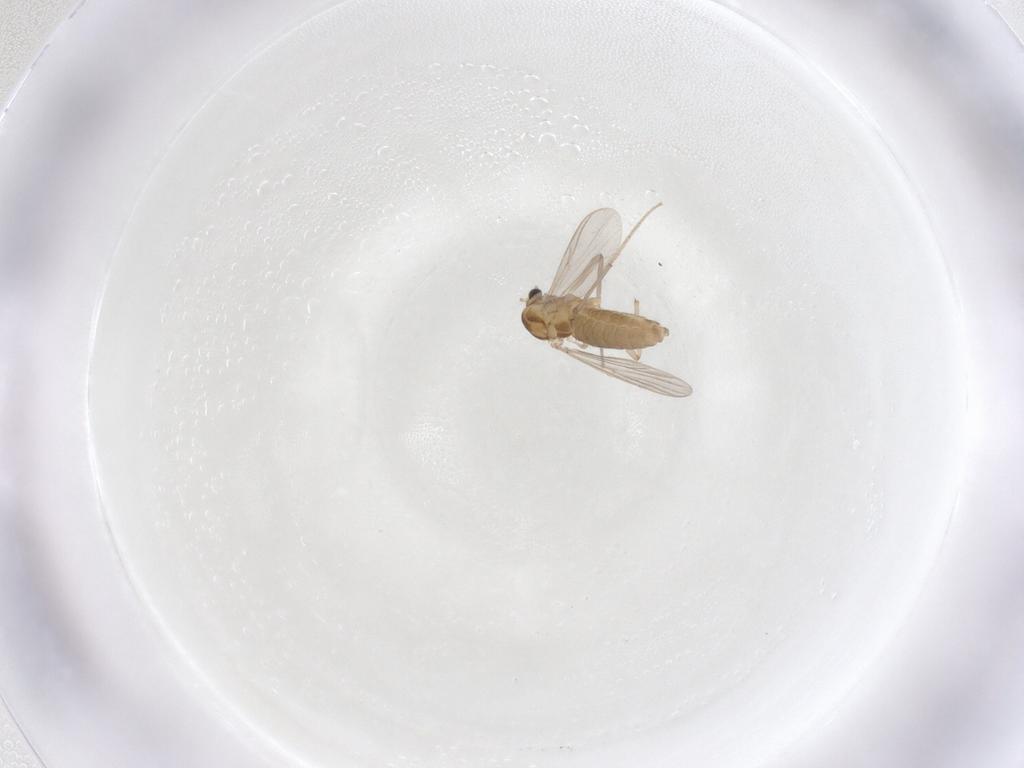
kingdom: Animalia
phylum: Arthropoda
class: Insecta
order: Diptera
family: Chironomidae
